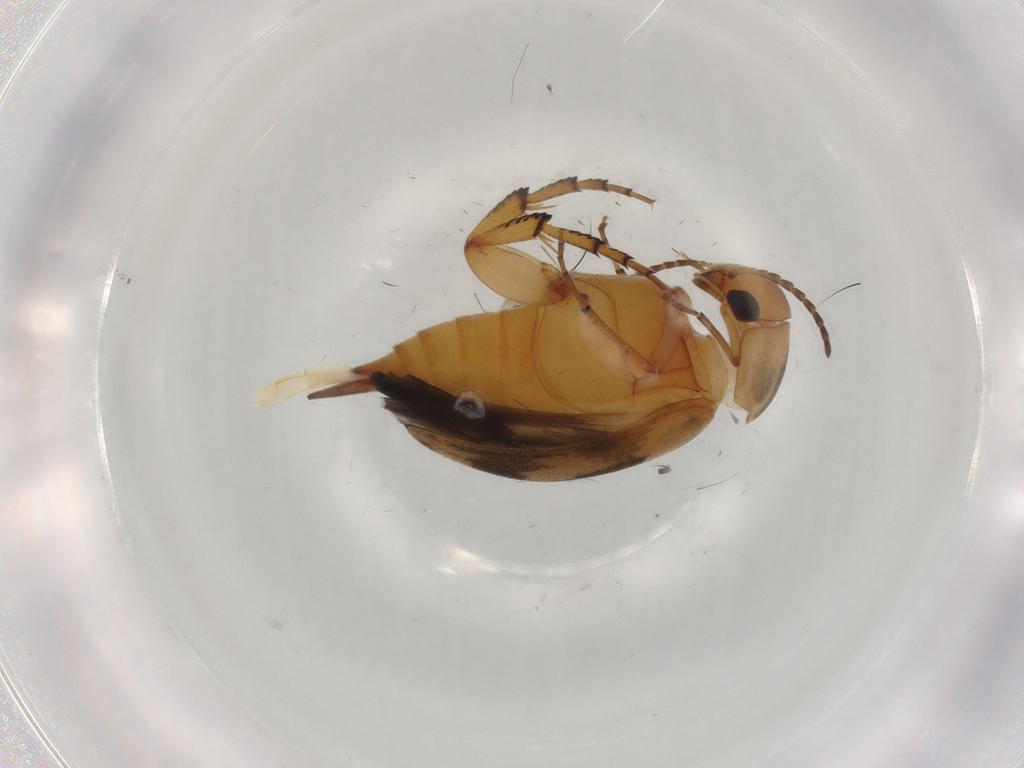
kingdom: Animalia
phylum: Arthropoda
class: Insecta
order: Coleoptera
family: Mordellidae
